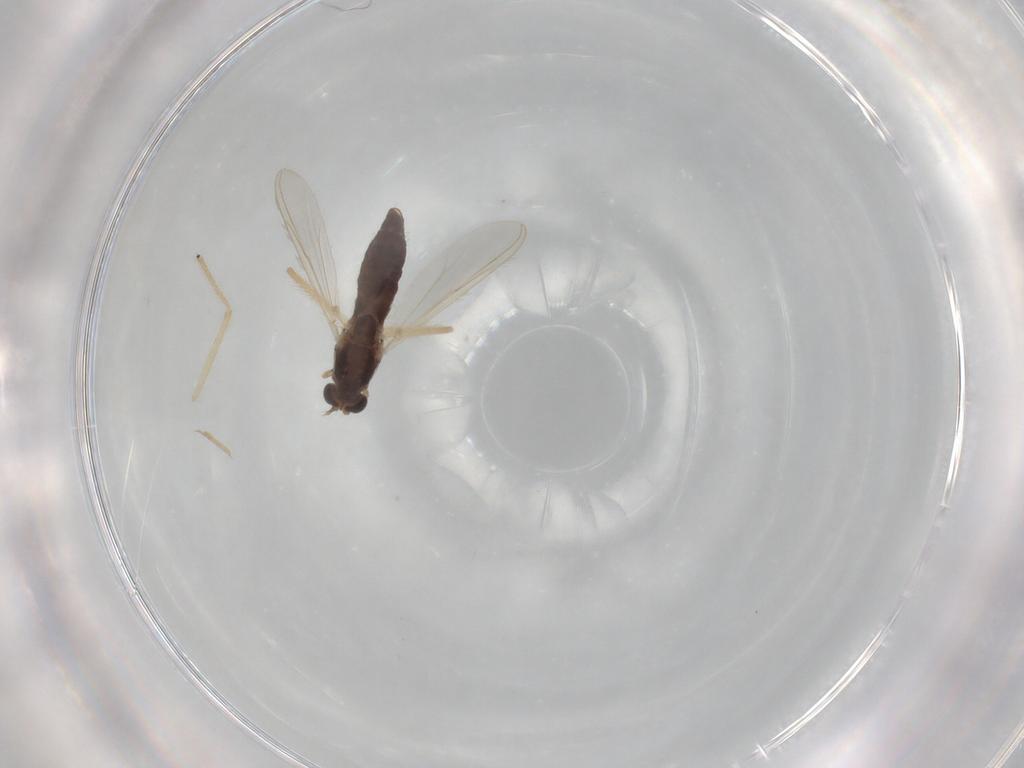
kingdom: Animalia
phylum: Arthropoda
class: Insecta
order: Diptera
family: Chironomidae
